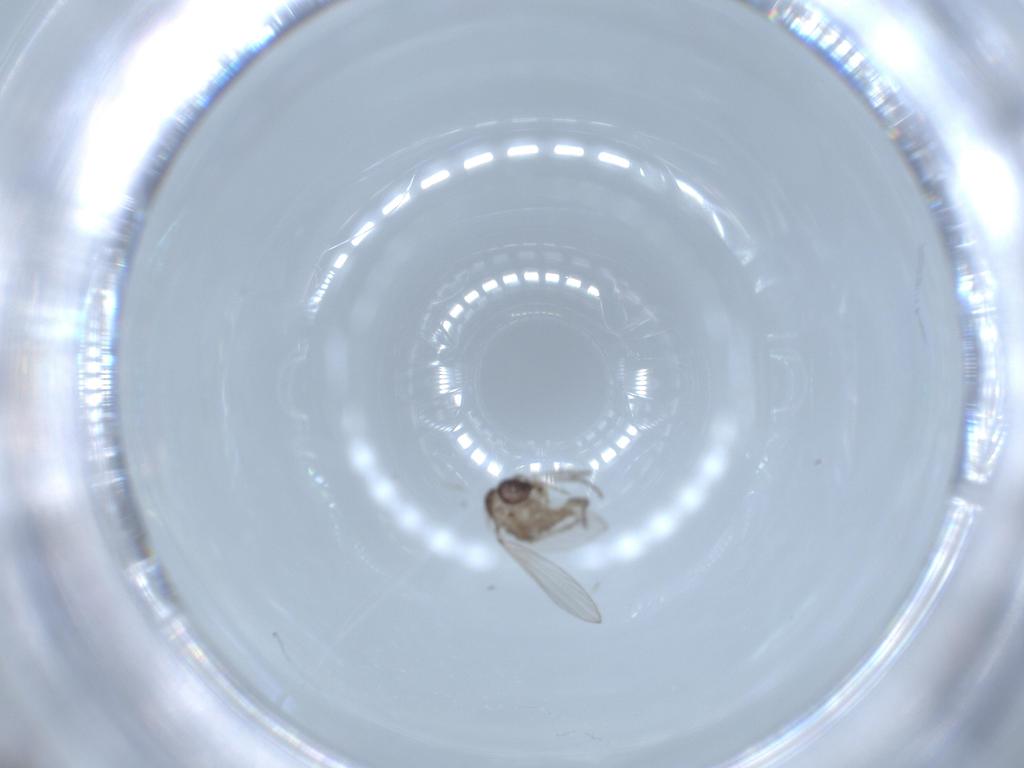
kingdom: Animalia
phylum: Arthropoda
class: Insecta
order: Diptera
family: Psychodidae
